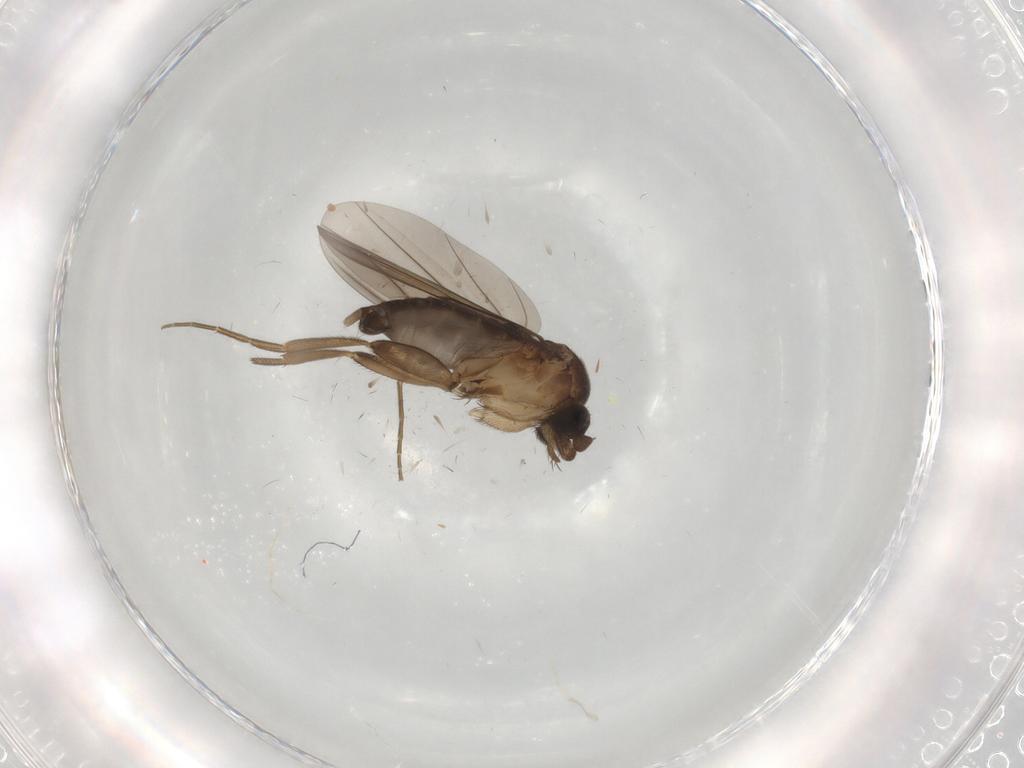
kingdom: Animalia
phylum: Arthropoda
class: Insecta
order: Diptera
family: Phoridae
